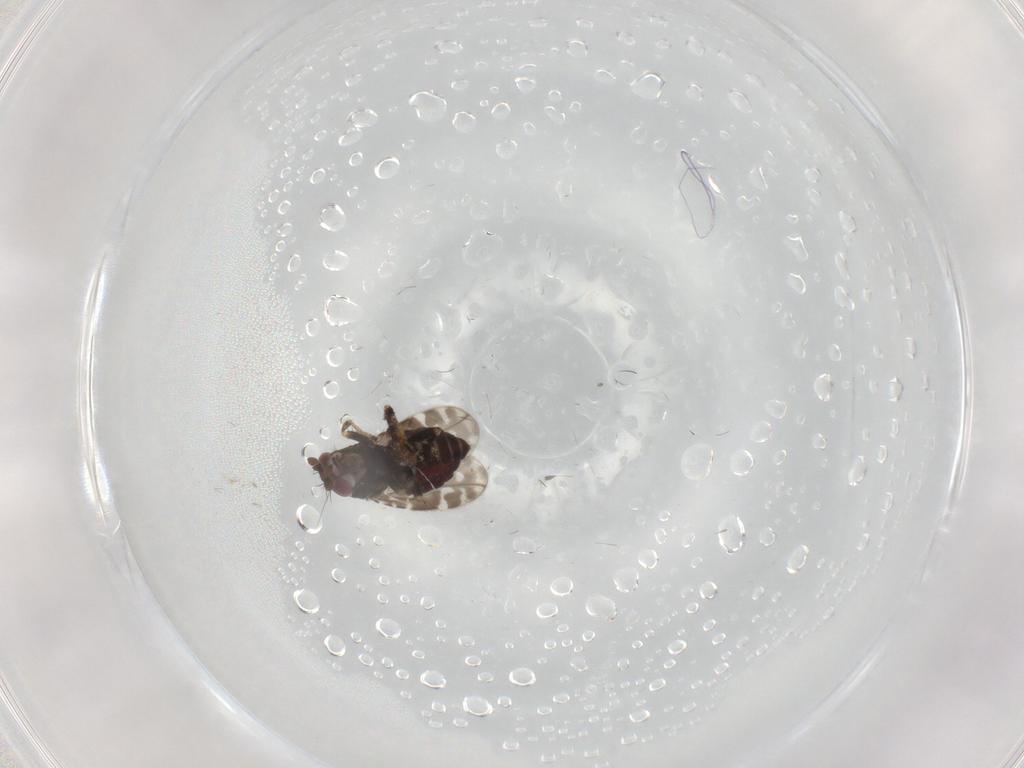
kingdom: Animalia
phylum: Arthropoda
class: Insecta
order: Diptera
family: Sphaeroceridae
